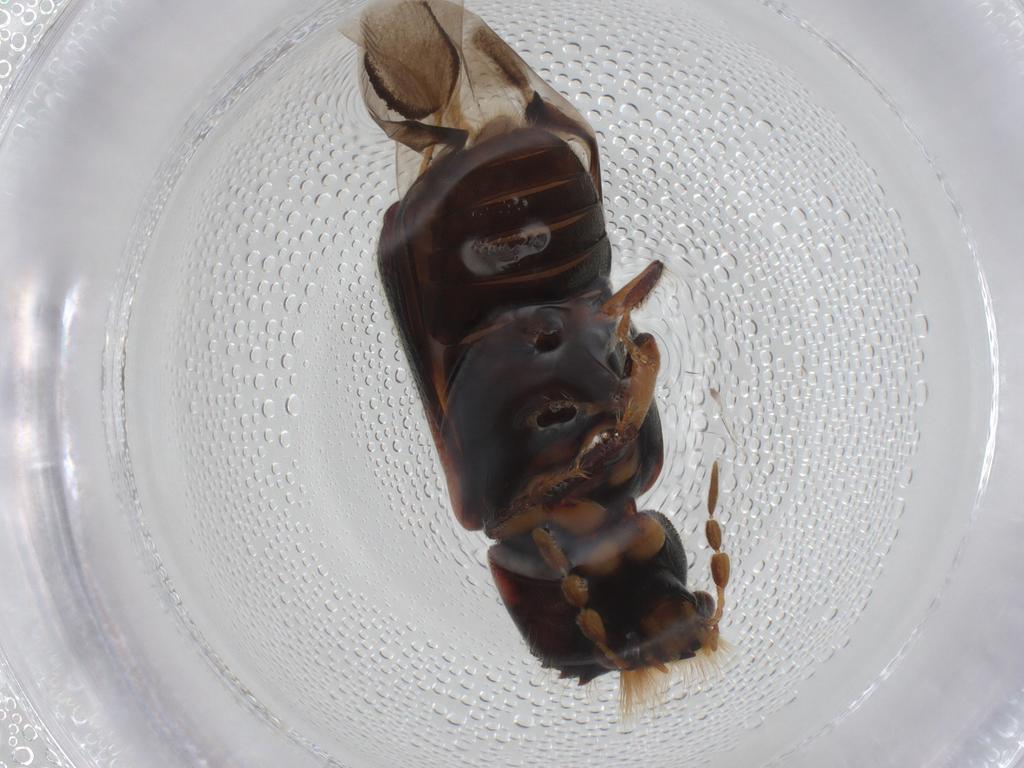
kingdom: Animalia
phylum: Arthropoda
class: Insecta
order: Coleoptera
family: Bostrichidae
